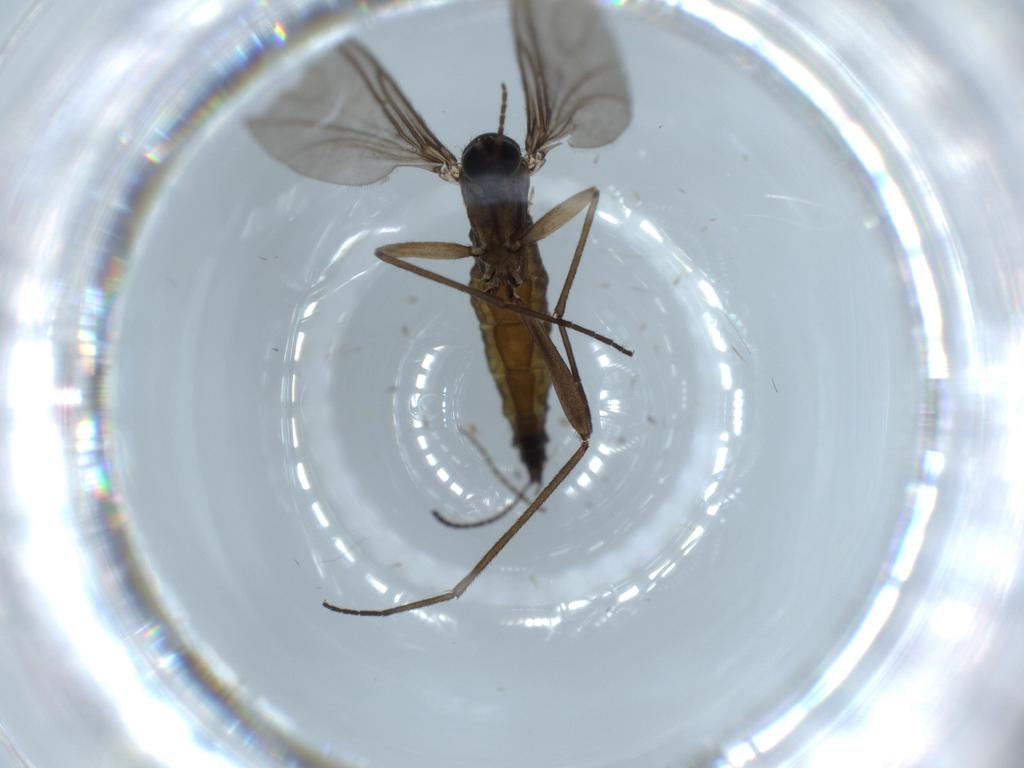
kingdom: Animalia
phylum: Arthropoda
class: Insecta
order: Diptera
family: Sciaridae
